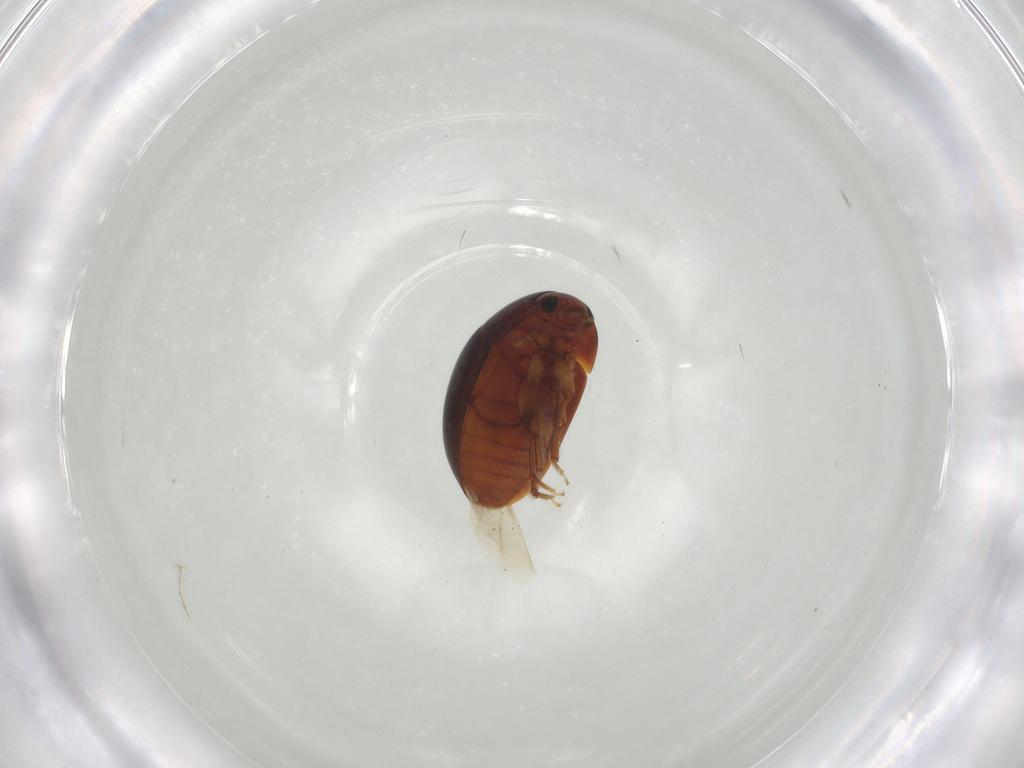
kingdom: Animalia
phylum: Arthropoda
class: Insecta
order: Coleoptera
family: Phalacridae
